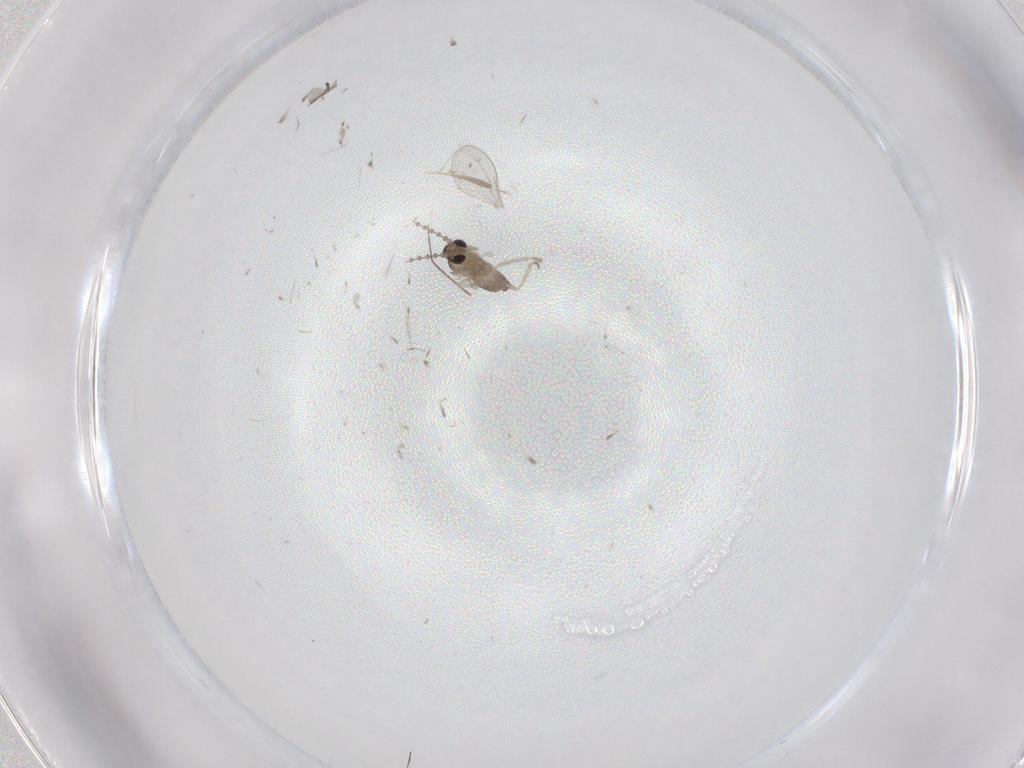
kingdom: Animalia
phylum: Arthropoda
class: Insecta
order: Diptera
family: Cecidomyiidae
